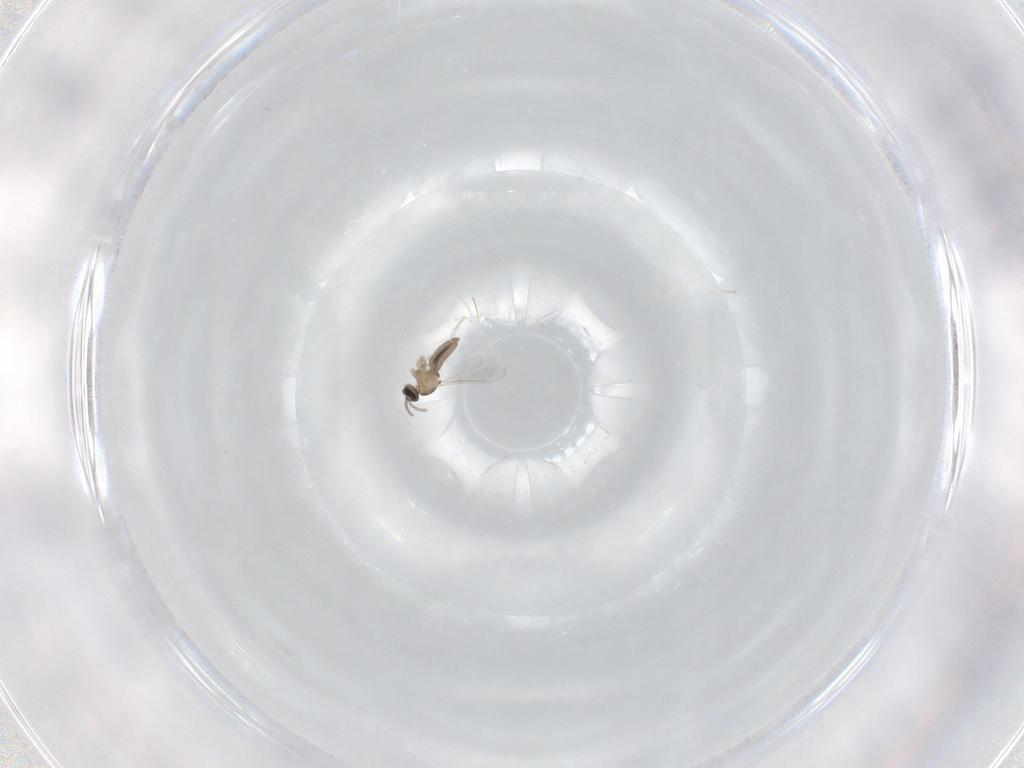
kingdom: Animalia
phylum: Arthropoda
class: Insecta
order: Diptera
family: Cecidomyiidae
